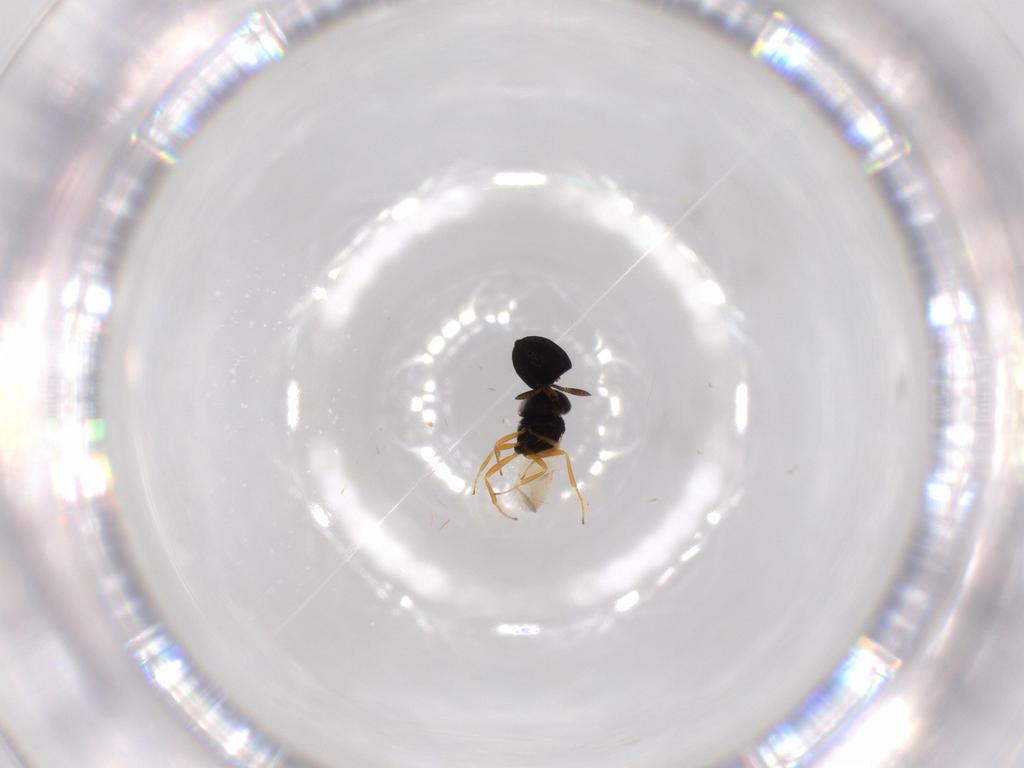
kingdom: Animalia
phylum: Arthropoda
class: Insecta
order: Hymenoptera
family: Scelionidae
